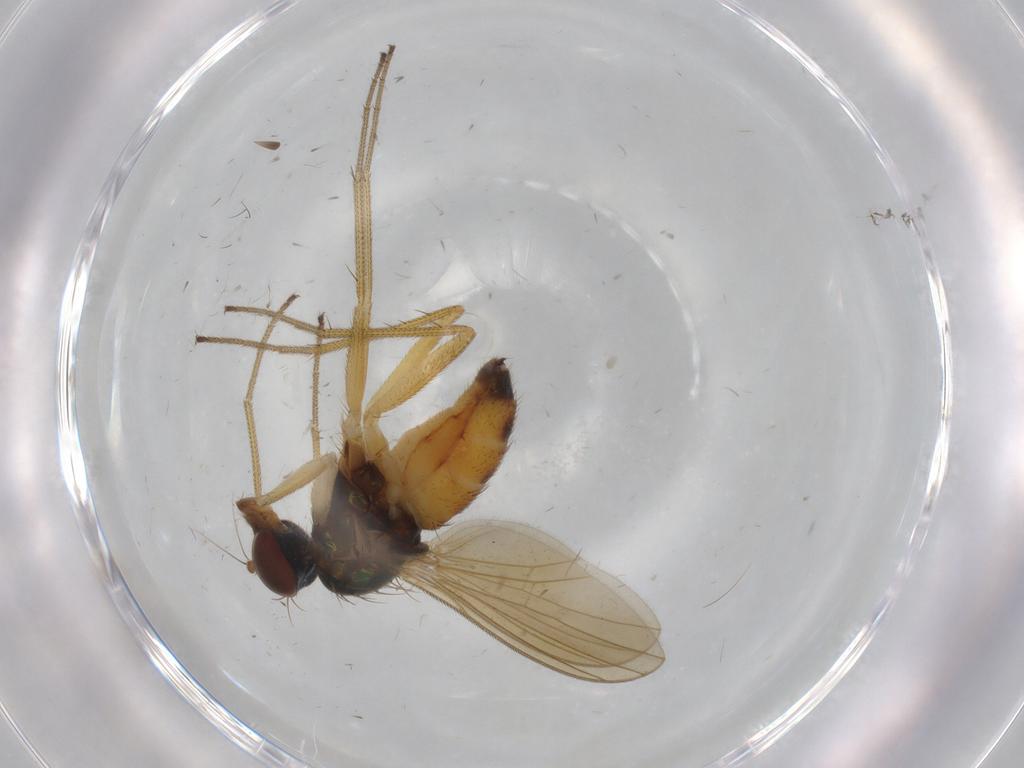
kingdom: Animalia
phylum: Arthropoda
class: Insecta
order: Diptera
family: Dolichopodidae
